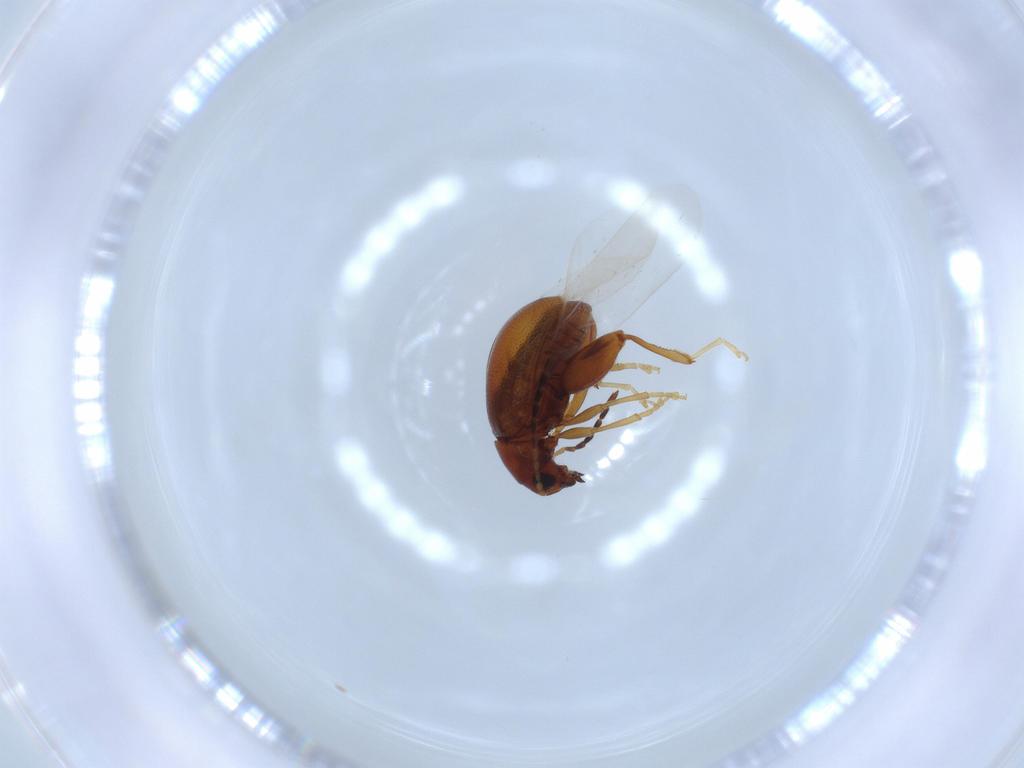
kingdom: Animalia
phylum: Arthropoda
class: Insecta
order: Coleoptera
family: Chrysomelidae
